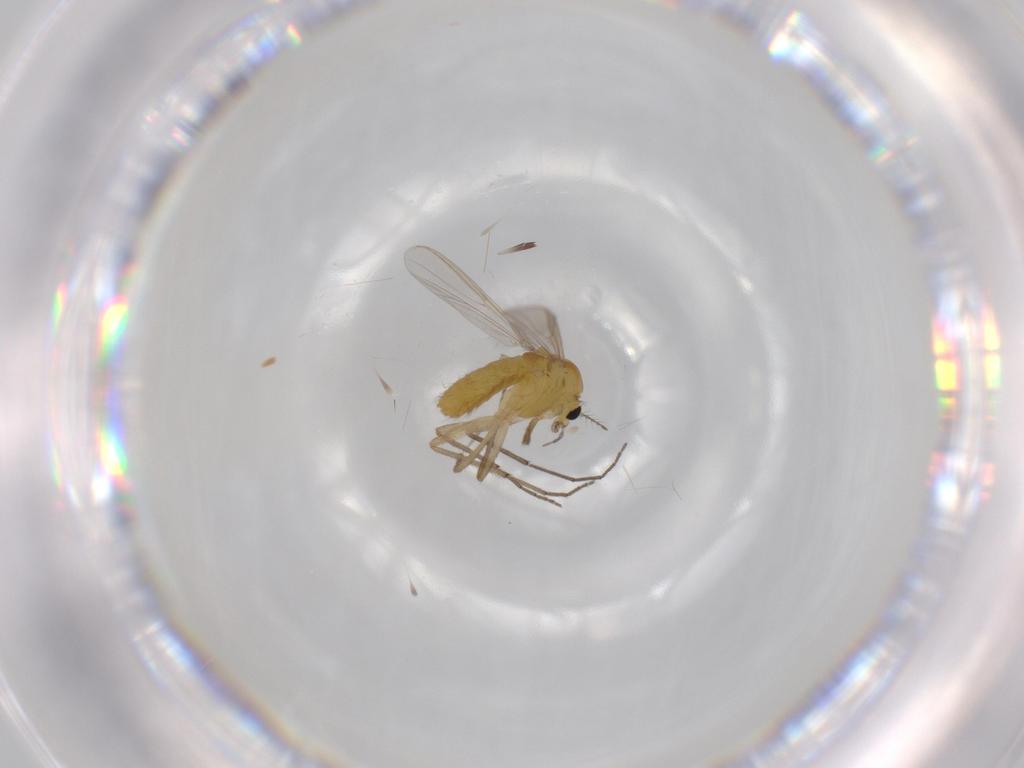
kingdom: Animalia
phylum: Arthropoda
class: Insecta
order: Diptera
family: Chironomidae
